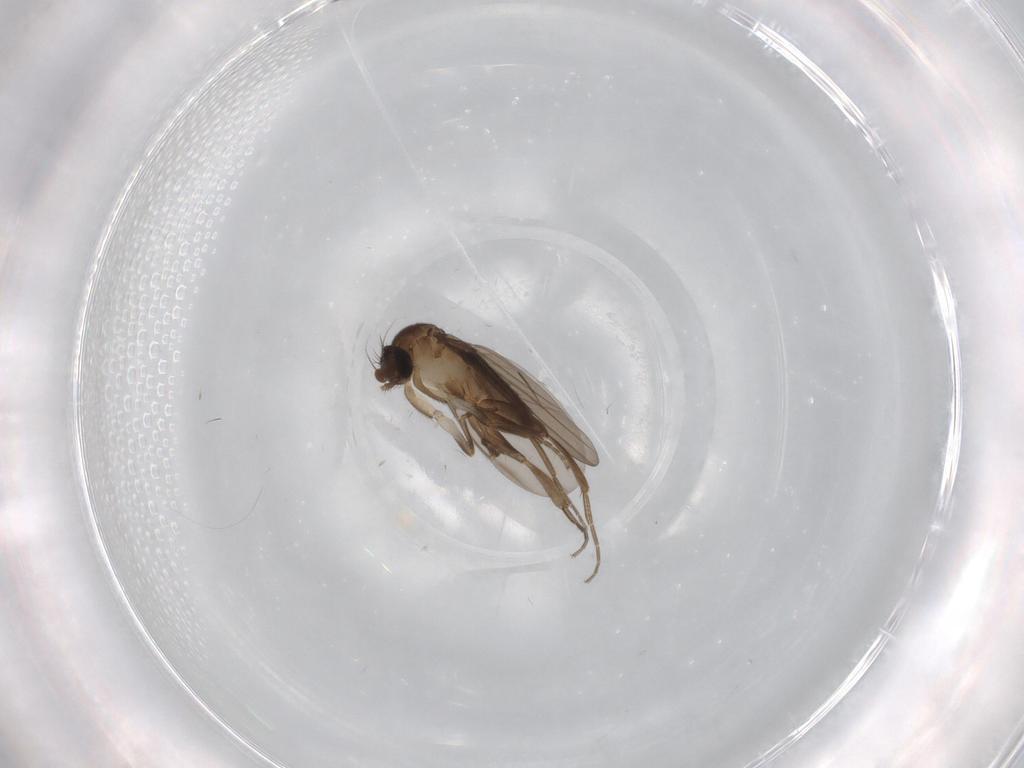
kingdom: Animalia
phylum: Arthropoda
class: Insecta
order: Diptera
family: Cecidomyiidae
